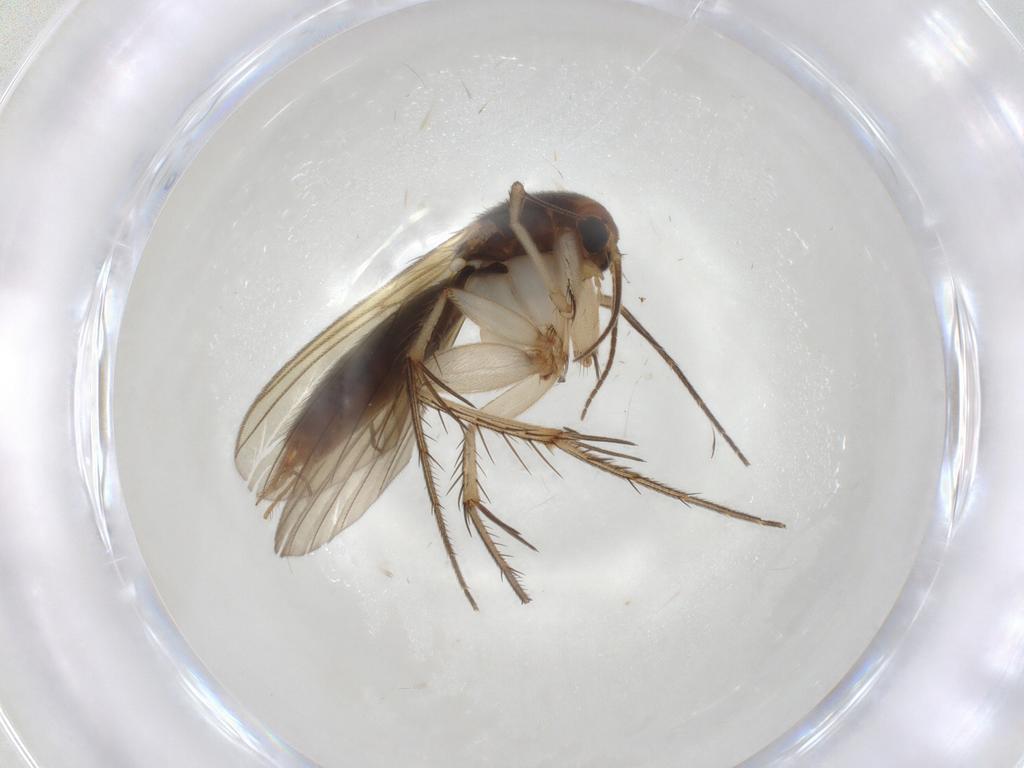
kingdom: Animalia
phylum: Arthropoda
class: Insecta
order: Diptera
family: Mycetophilidae
